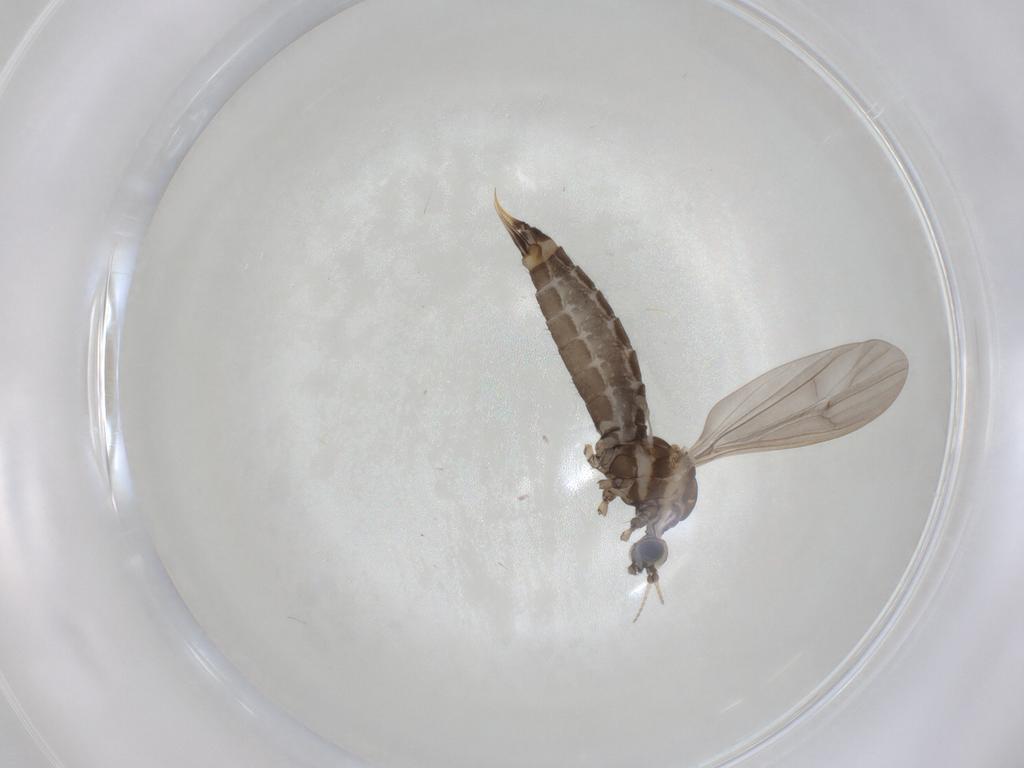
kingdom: Animalia
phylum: Arthropoda
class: Insecta
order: Diptera
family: Limoniidae
